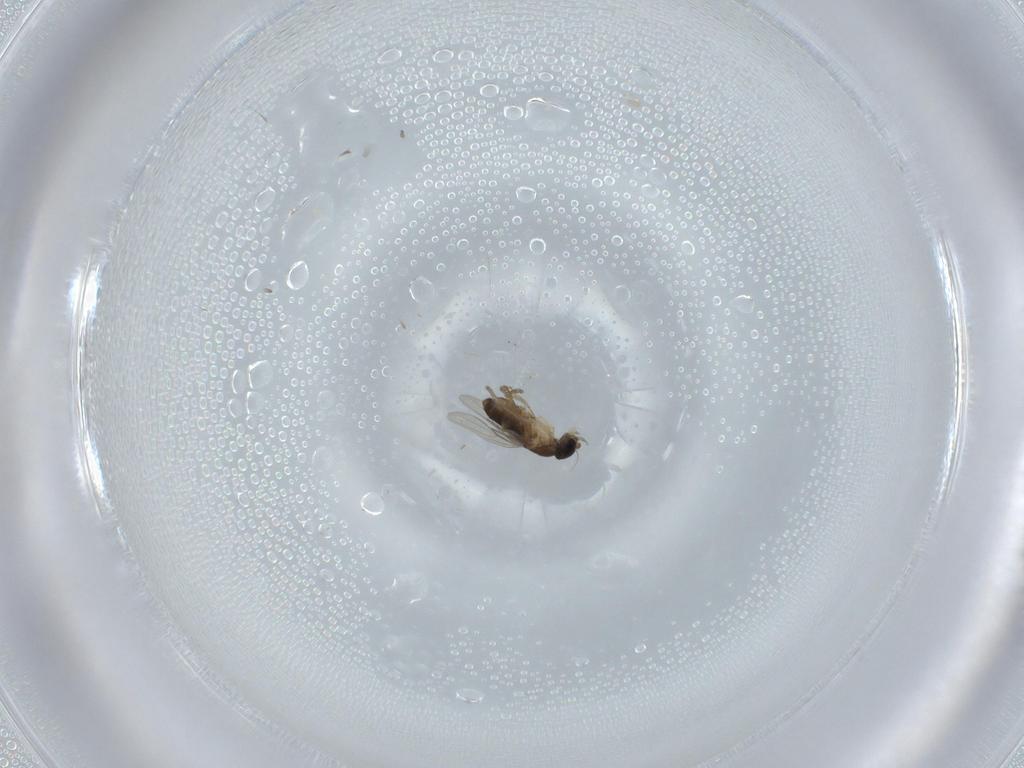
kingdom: Animalia
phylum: Arthropoda
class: Insecta
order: Diptera
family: Phoridae
